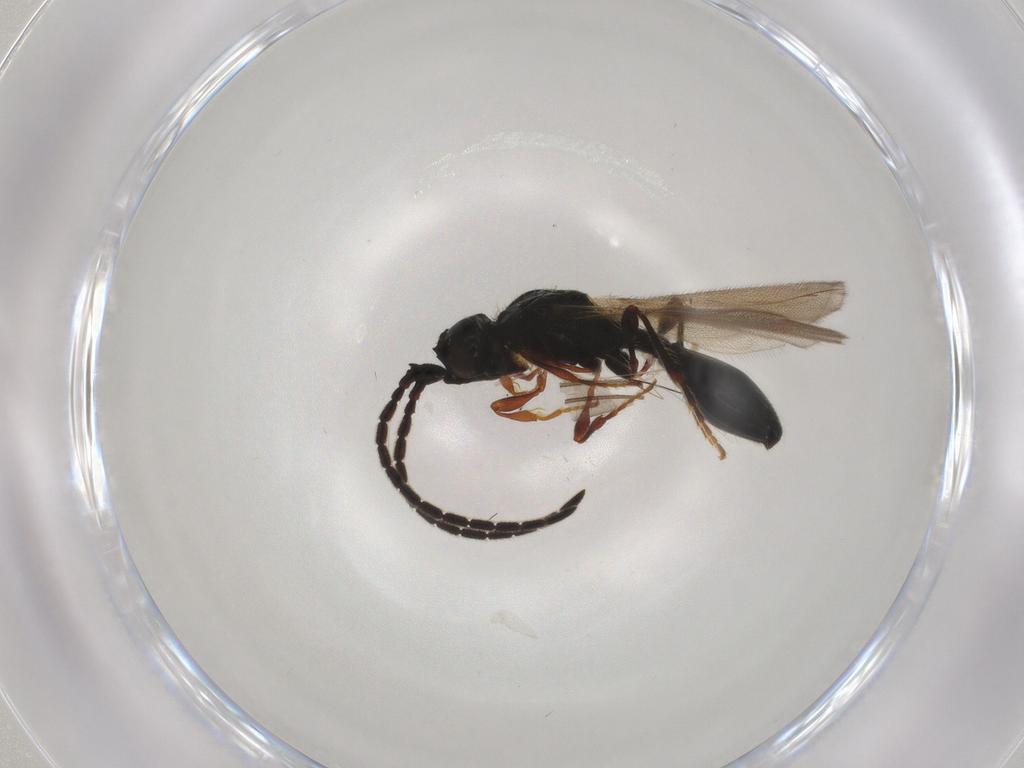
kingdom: Animalia
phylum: Arthropoda
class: Insecta
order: Hymenoptera
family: Diapriidae
